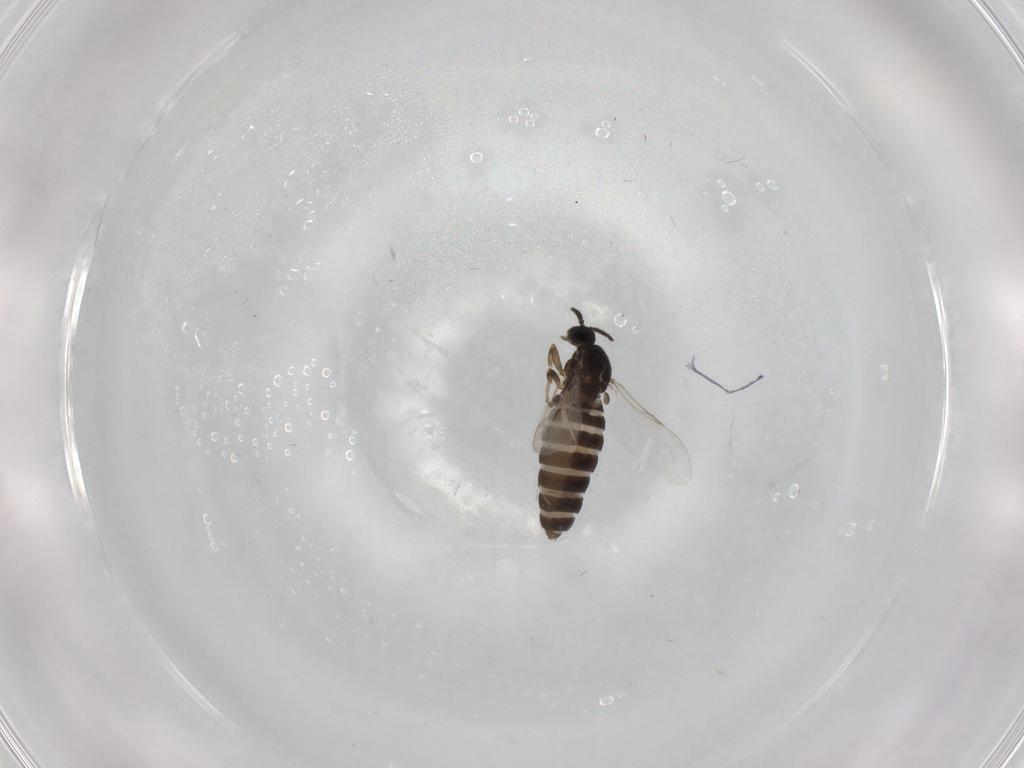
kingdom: Animalia
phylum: Arthropoda
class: Insecta
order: Diptera
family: Scatopsidae
